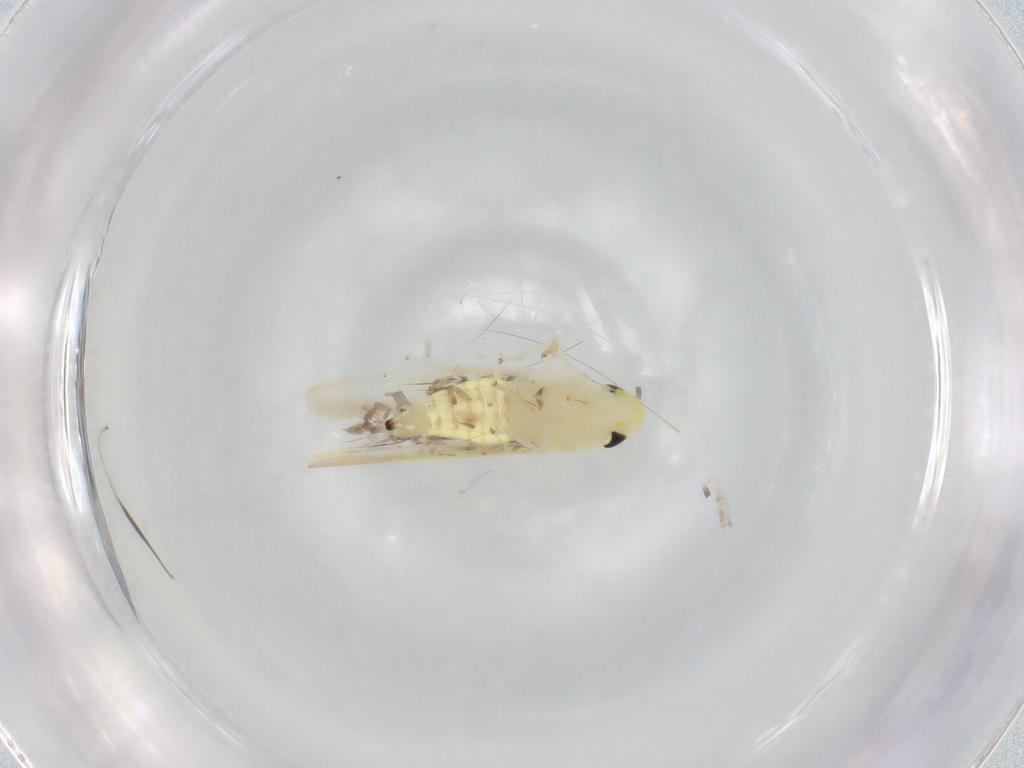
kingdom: Animalia
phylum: Arthropoda
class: Insecta
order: Hemiptera
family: Cicadellidae
